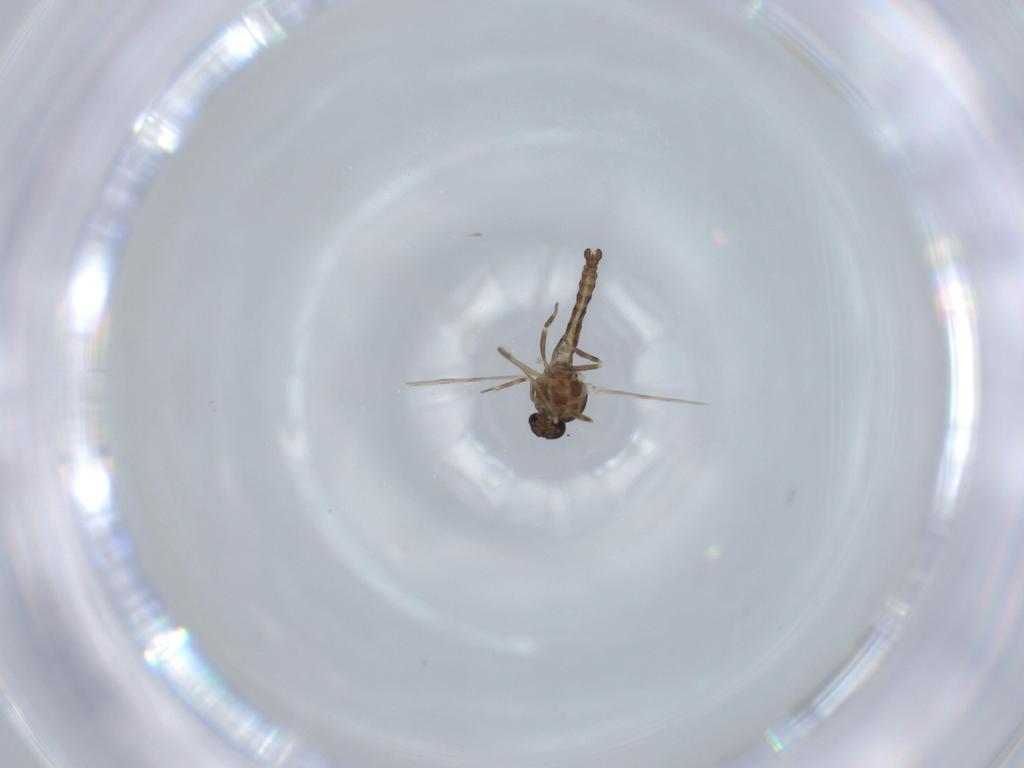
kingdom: Animalia
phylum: Arthropoda
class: Insecta
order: Diptera
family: Ceratopogonidae
